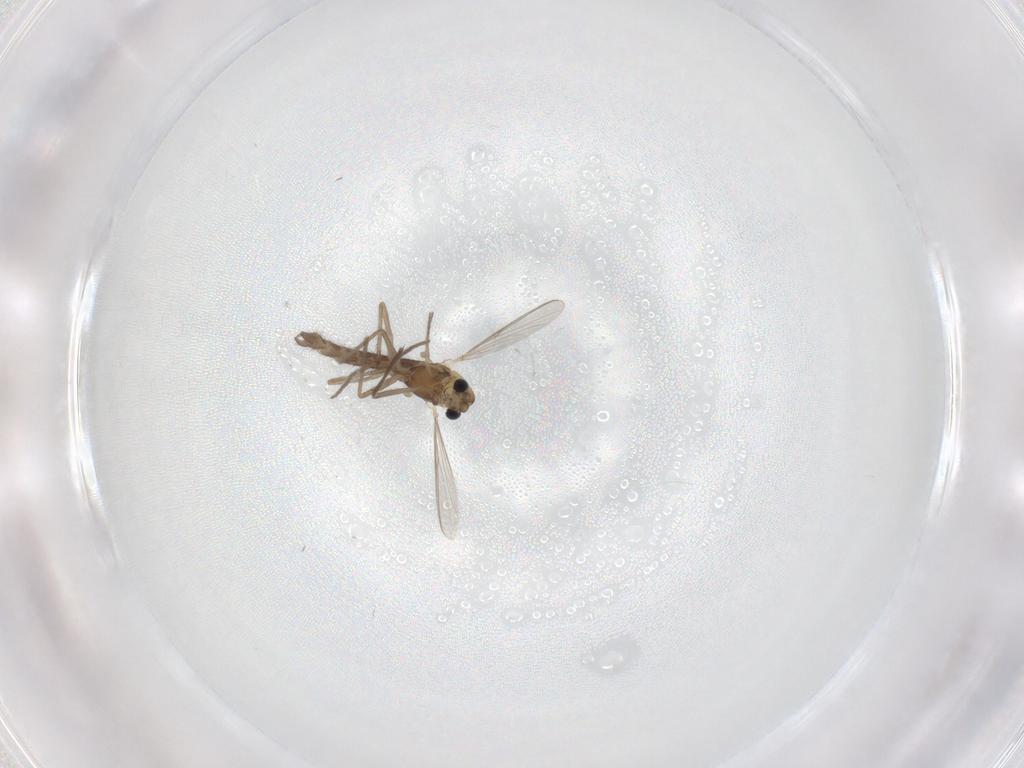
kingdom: Animalia
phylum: Arthropoda
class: Insecta
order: Diptera
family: Chironomidae
